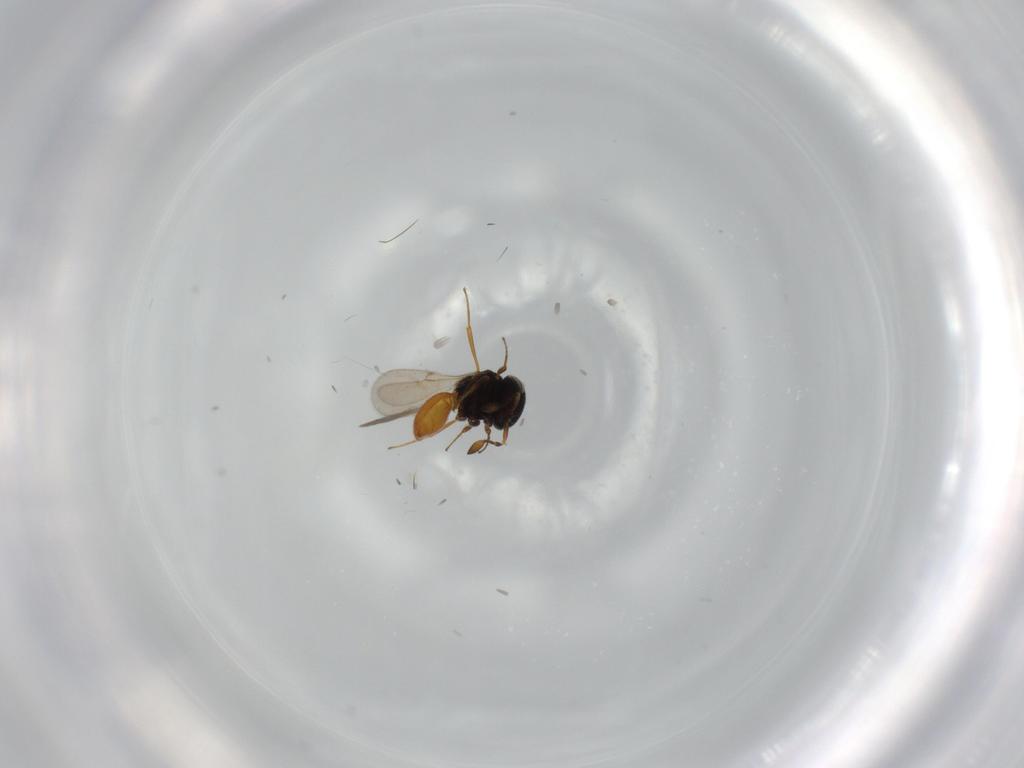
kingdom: Animalia
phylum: Arthropoda
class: Insecta
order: Hymenoptera
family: Scelionidae
